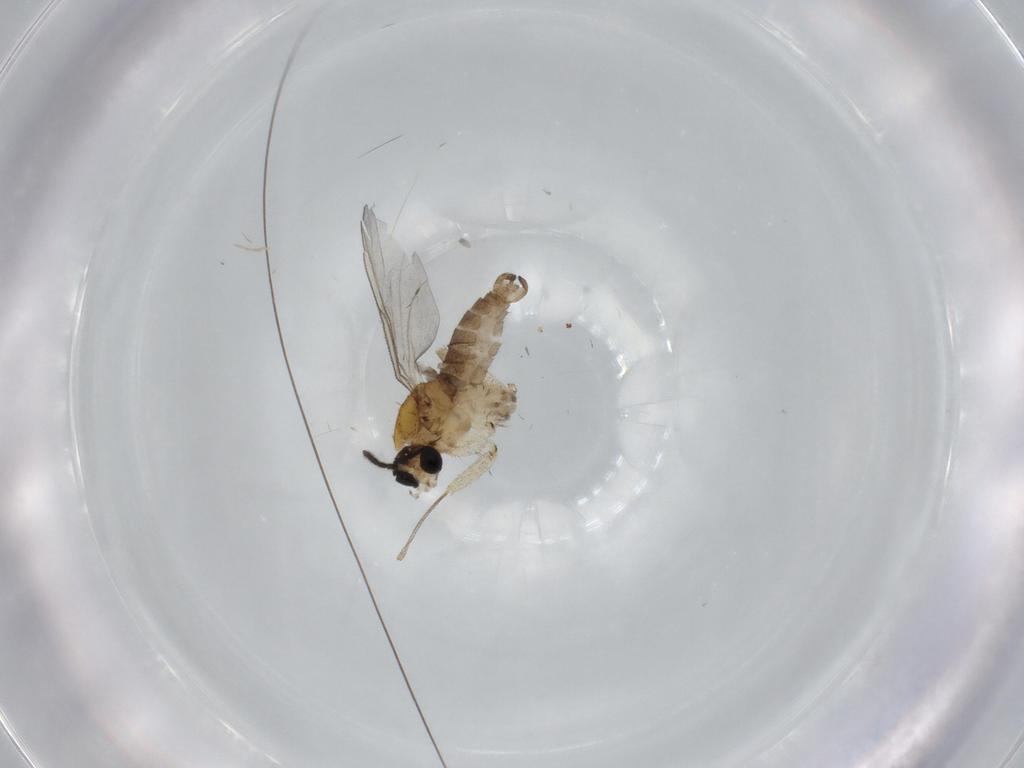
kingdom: Animalia
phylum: Arthropoda
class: Insecta
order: Diptera
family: Sciaridae
